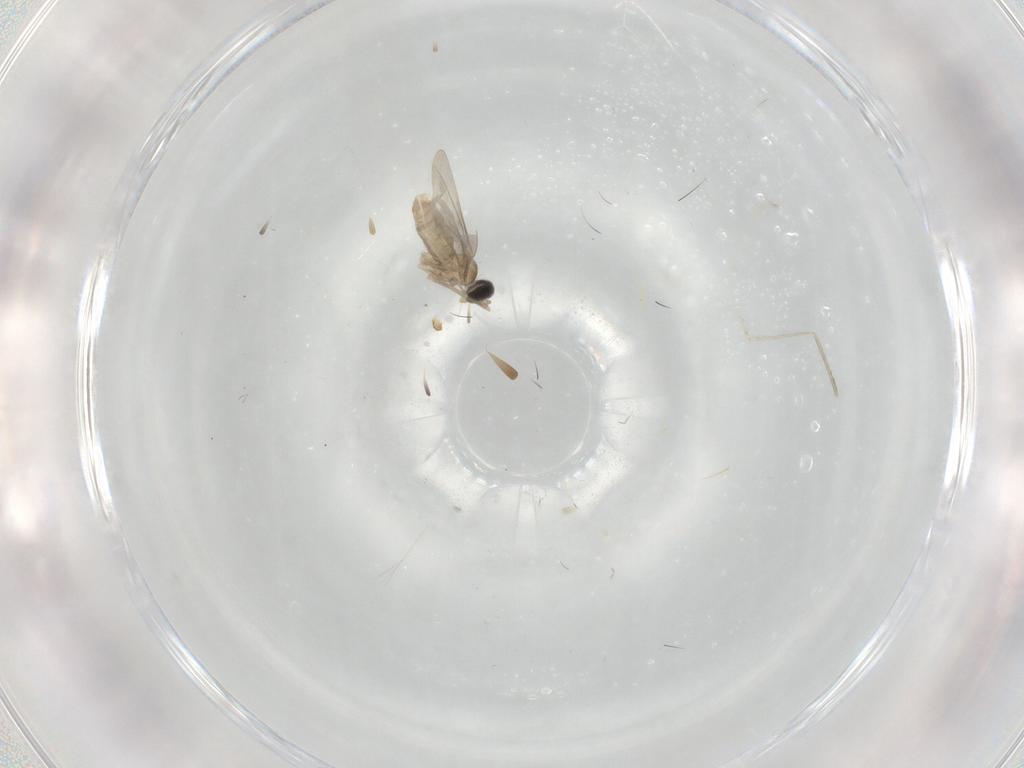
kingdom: Animalia
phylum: Arthropoda
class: Insecta
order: Diptera
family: Cecidomyiidae
